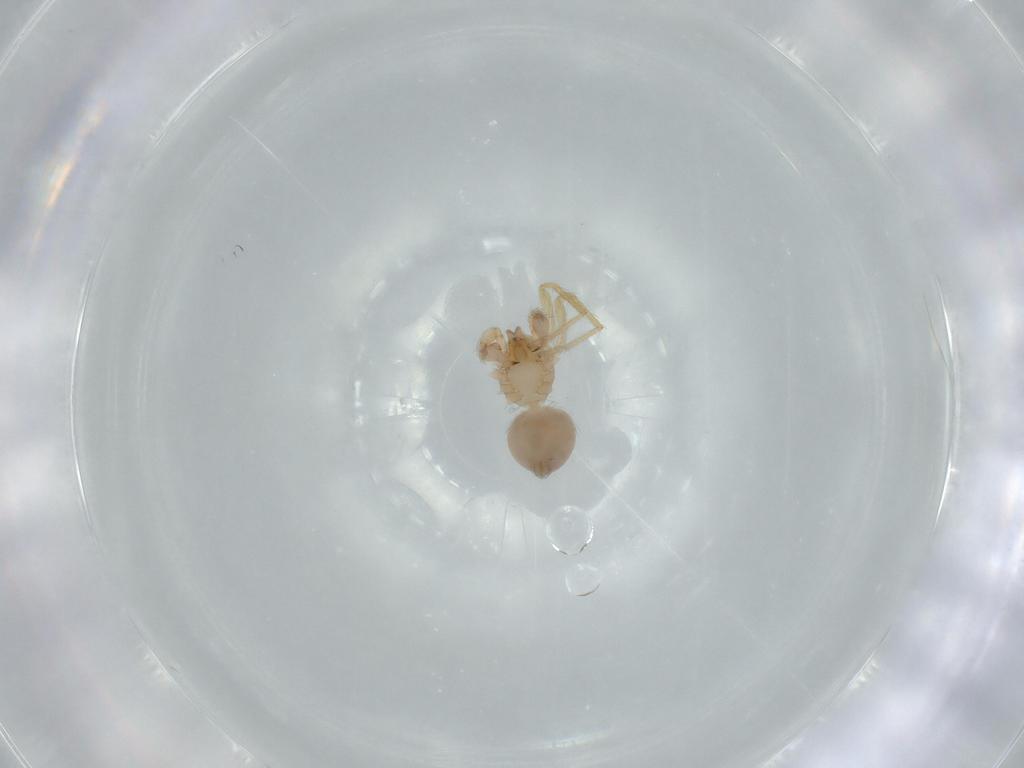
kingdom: Animalia
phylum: Arthropoda
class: Arachnida
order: Araneae
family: Oonopidae
